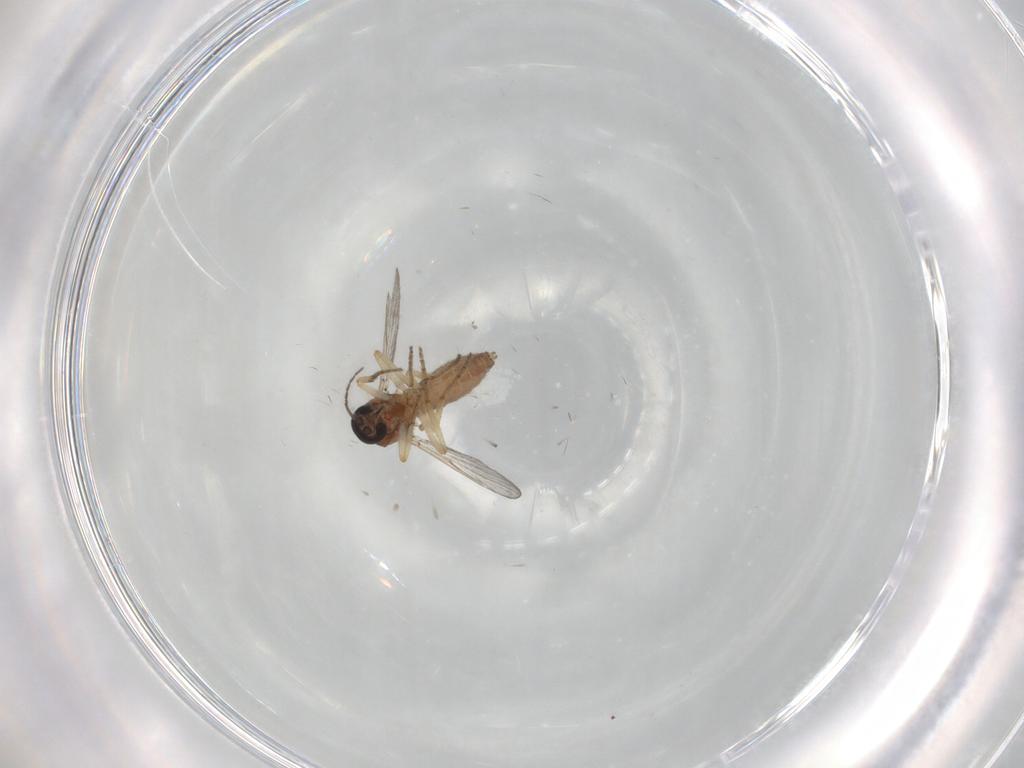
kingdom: Animalia
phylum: Arthropoda
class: Insecta
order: Diptera
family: Ceratopogonidae
